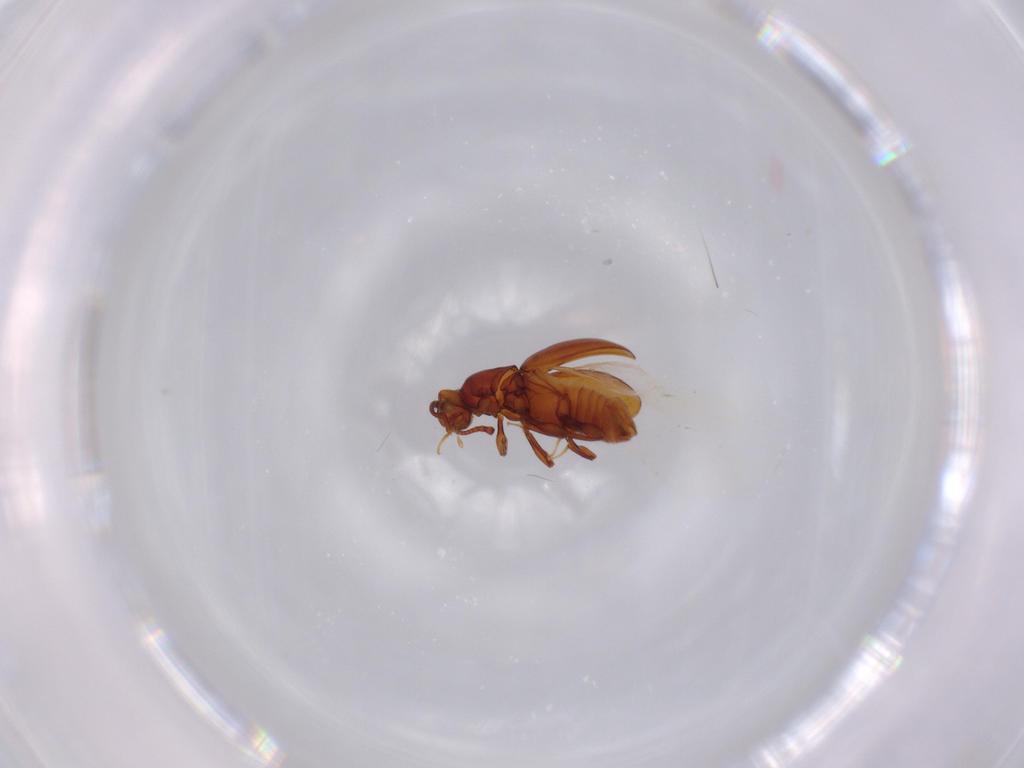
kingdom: Animalia
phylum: Arthropoda
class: Insecta
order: Coleoptera
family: Staphylinidae
